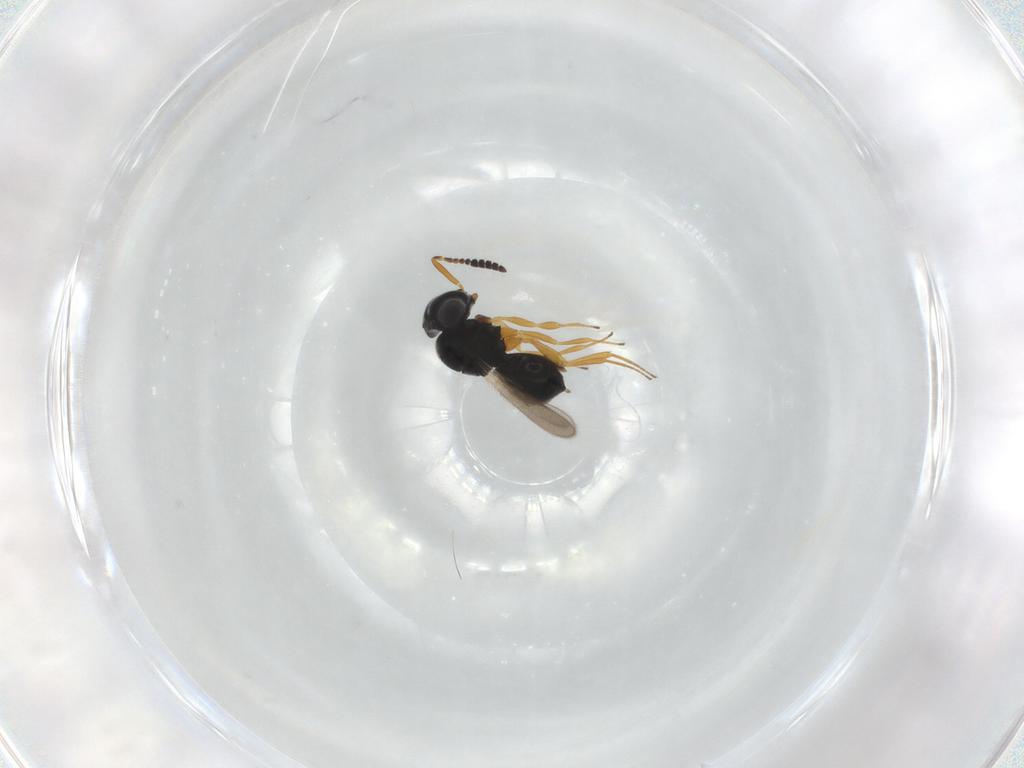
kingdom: Animalia
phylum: Arthropoda
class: Insecta
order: Hymenoptera
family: Scelionidae
